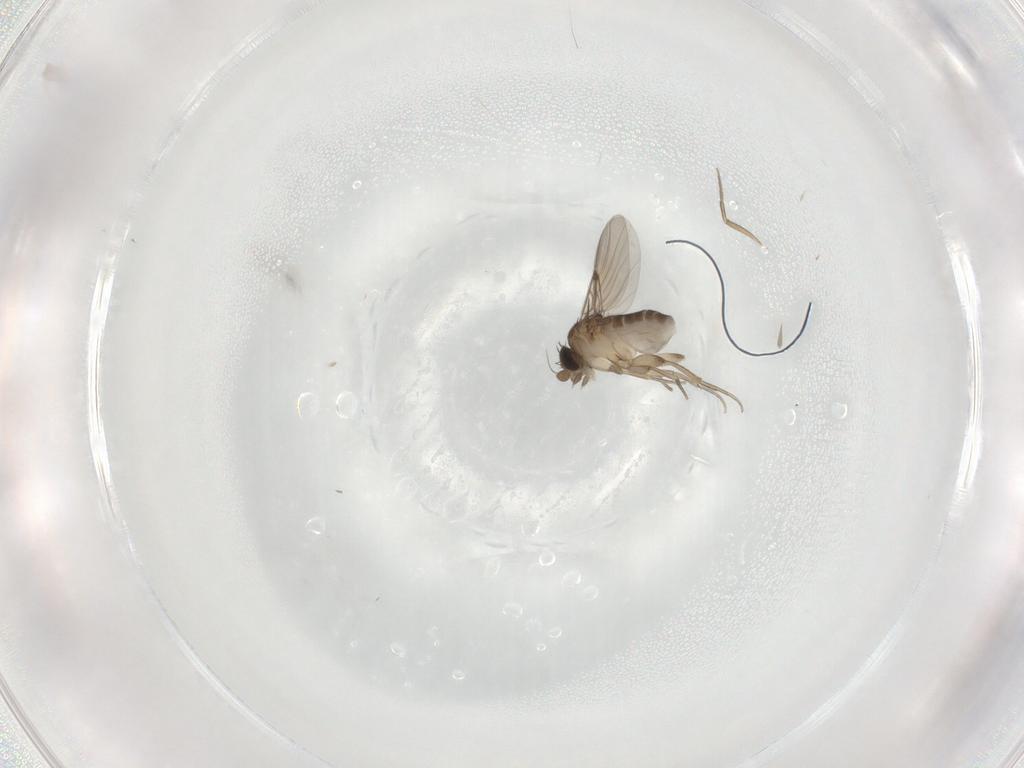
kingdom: Animalia
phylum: Arthropoda
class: Insecta
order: Diptera
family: Phoridae
